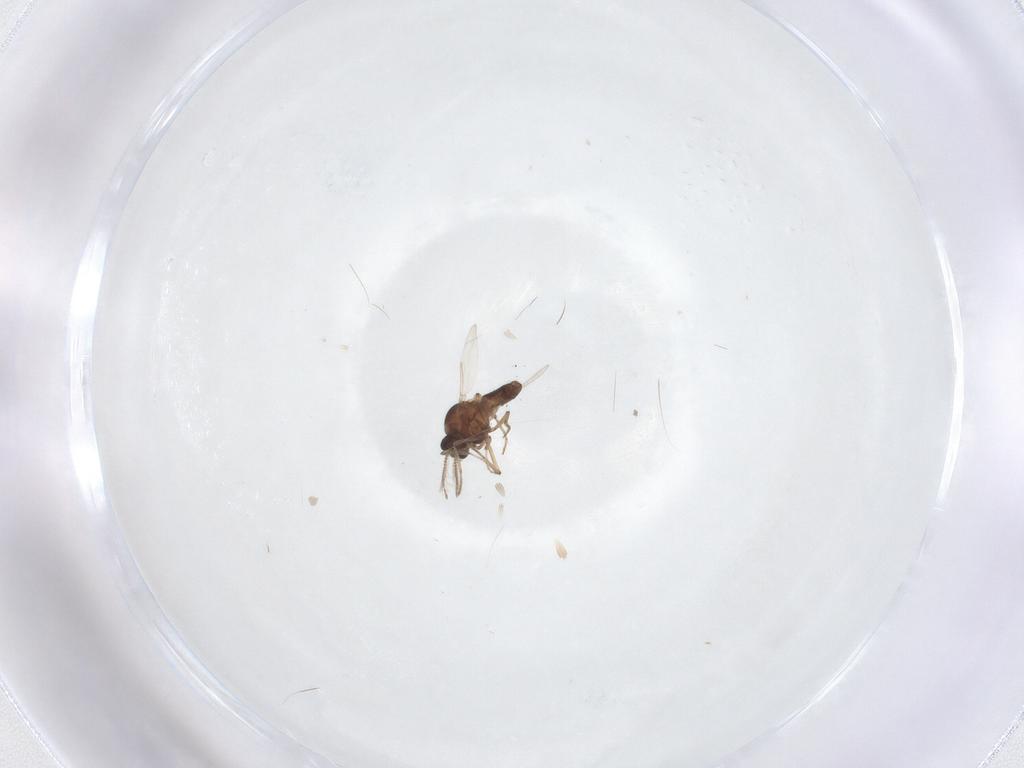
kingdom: Animalia
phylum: Arthropoda
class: Insecta
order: Diptera
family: Ceratopogonidae
